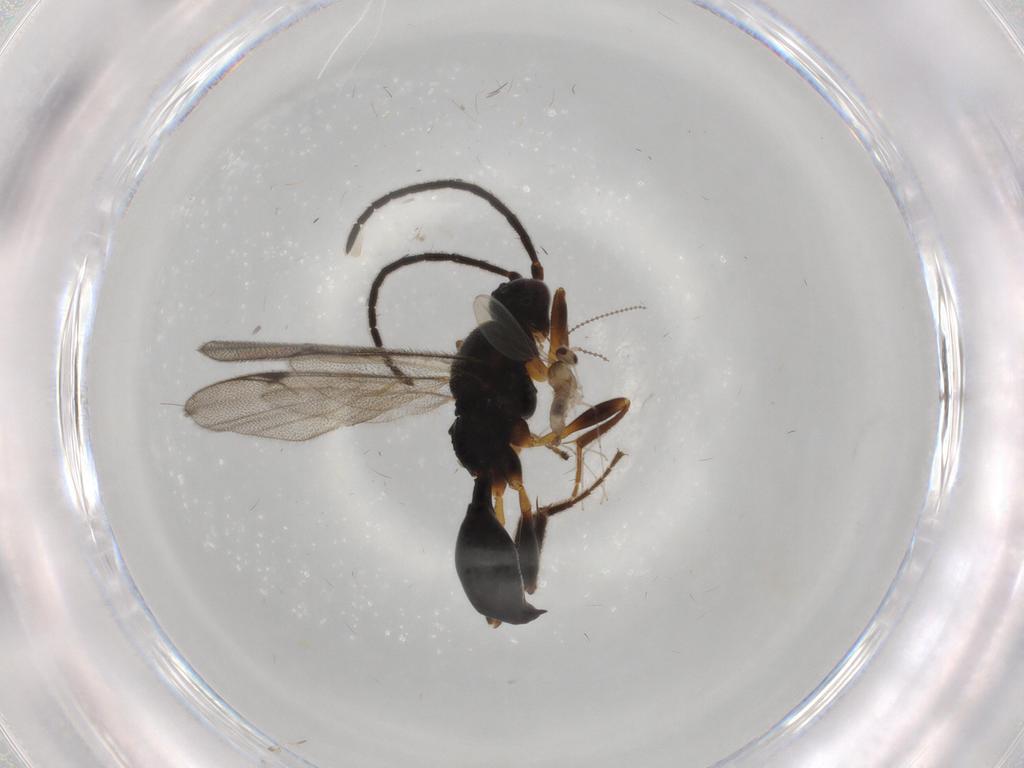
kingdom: Animalia
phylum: Arthropoda
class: Insecta
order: Hymenoptera
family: Proctotrupidae
